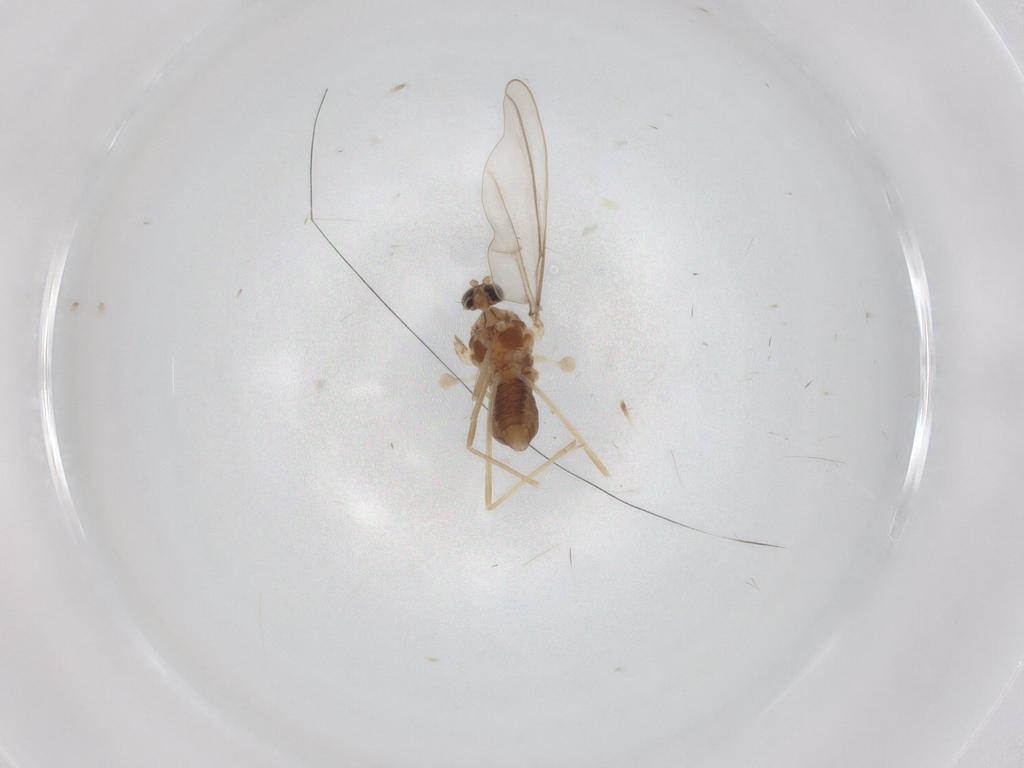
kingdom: Animalia
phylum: Arthropoda
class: Insecta
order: Diptera
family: Cecidomyiidae
